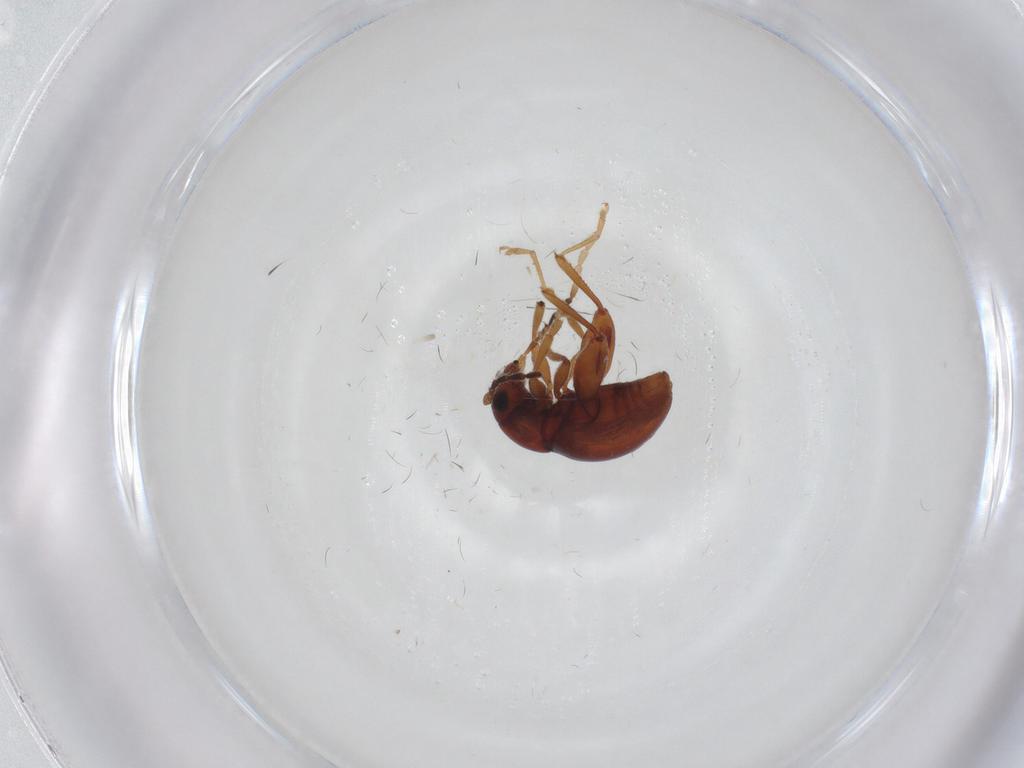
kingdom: Animalia
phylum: Arthropoda
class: Insecta
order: Coleoptera
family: Chrysomelidae
